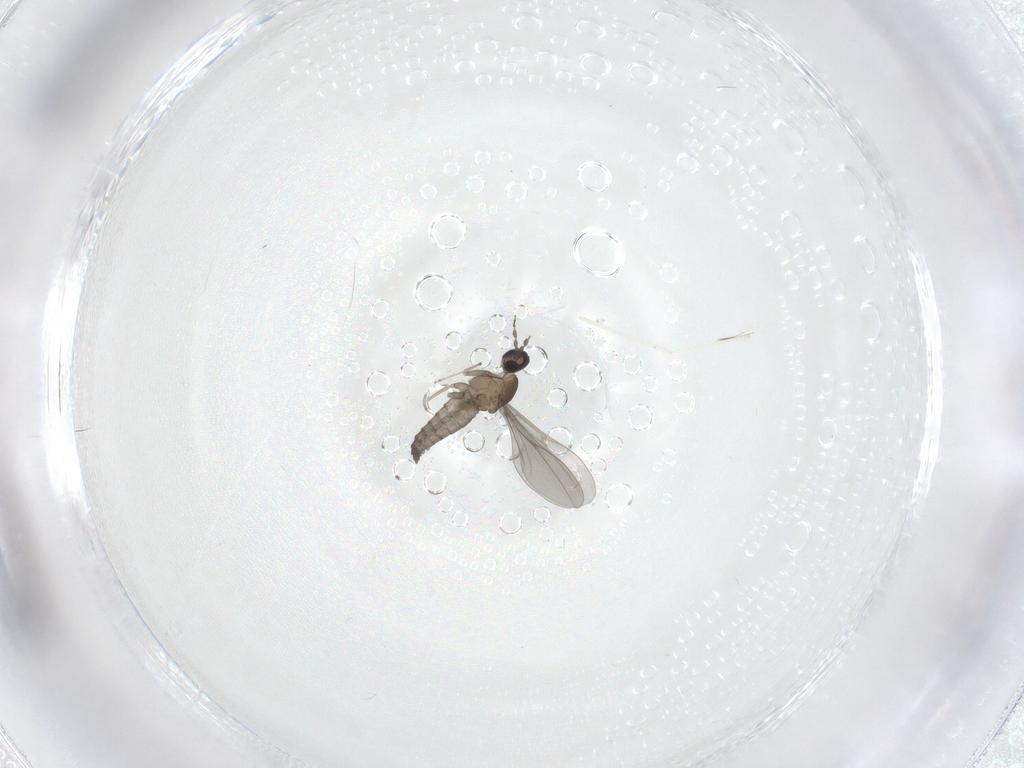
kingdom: Animalia
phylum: Arthropoda
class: Insecta
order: Diptera
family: Cecidomyiidae
